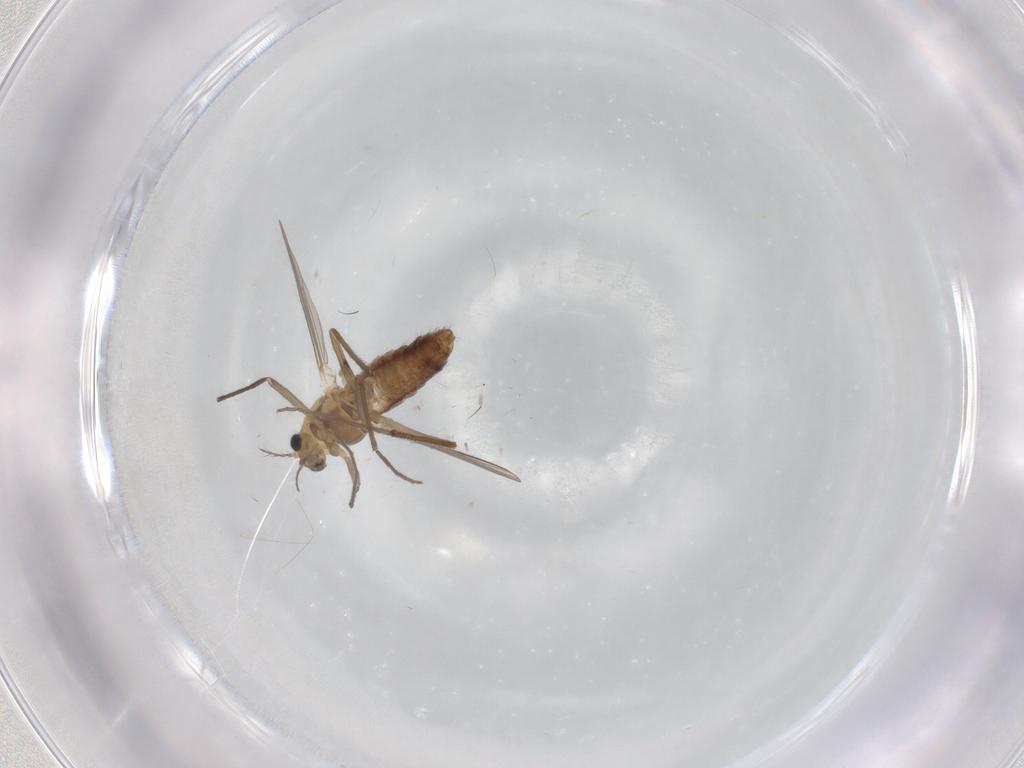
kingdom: Animalia
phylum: Arthropoda
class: Insecta
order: Diptera
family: Chironomidae
